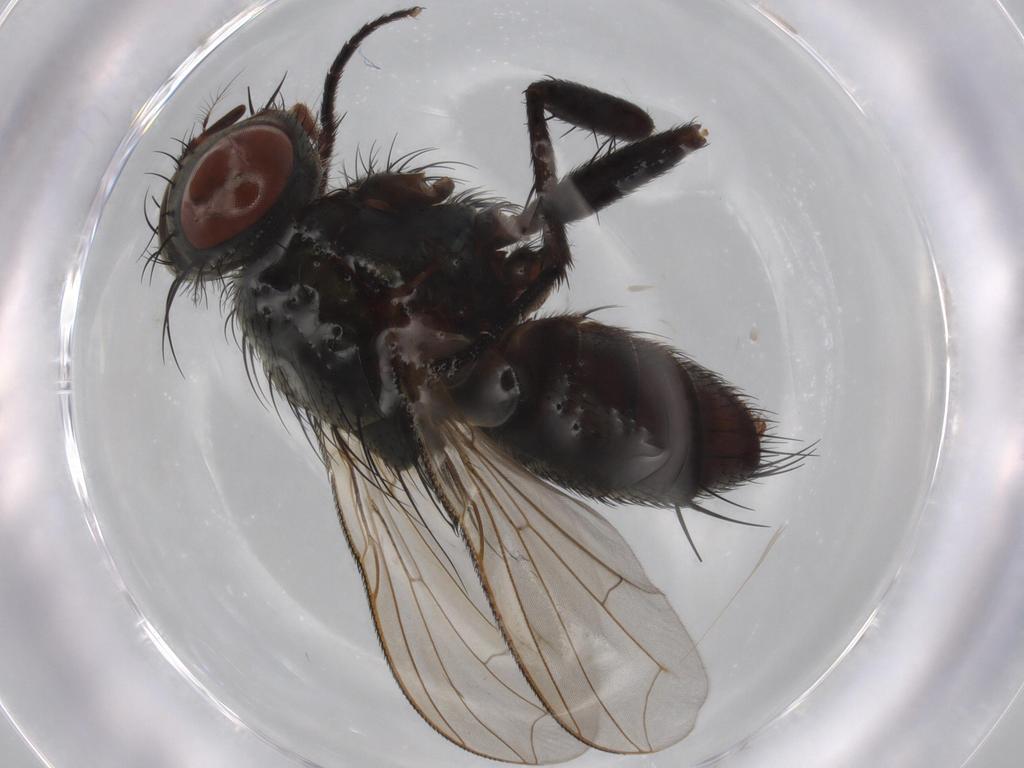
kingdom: Animalia
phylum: Arthropoda
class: Insecta
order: Diptera
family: Sarcophagidae
